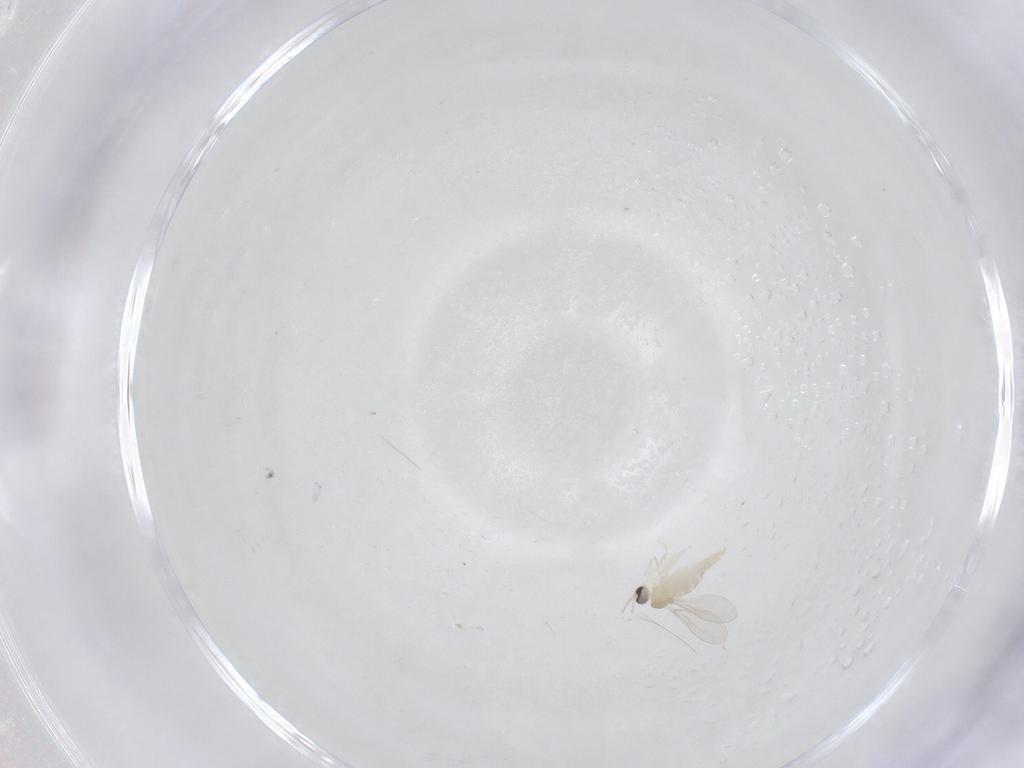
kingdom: Animalia
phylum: Arthropoda
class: Insecta
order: Diptera
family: Cecidomyiidae
